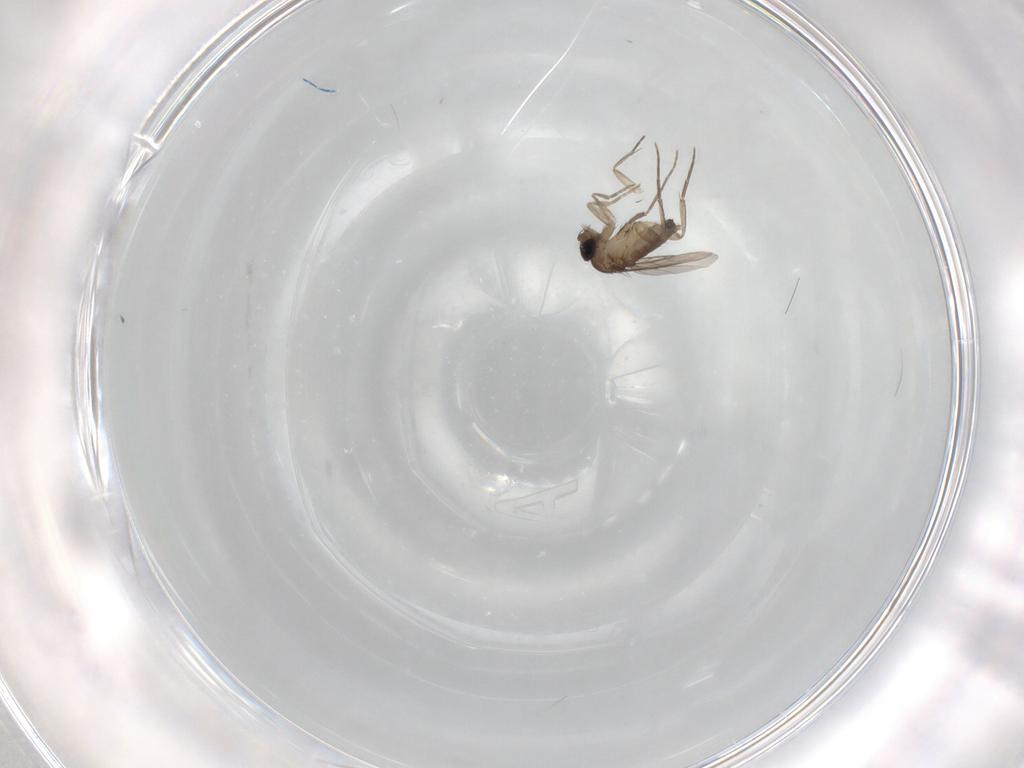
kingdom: Animalia
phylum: Arthropoda
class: Insecta
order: Diptera
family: Phoridae
